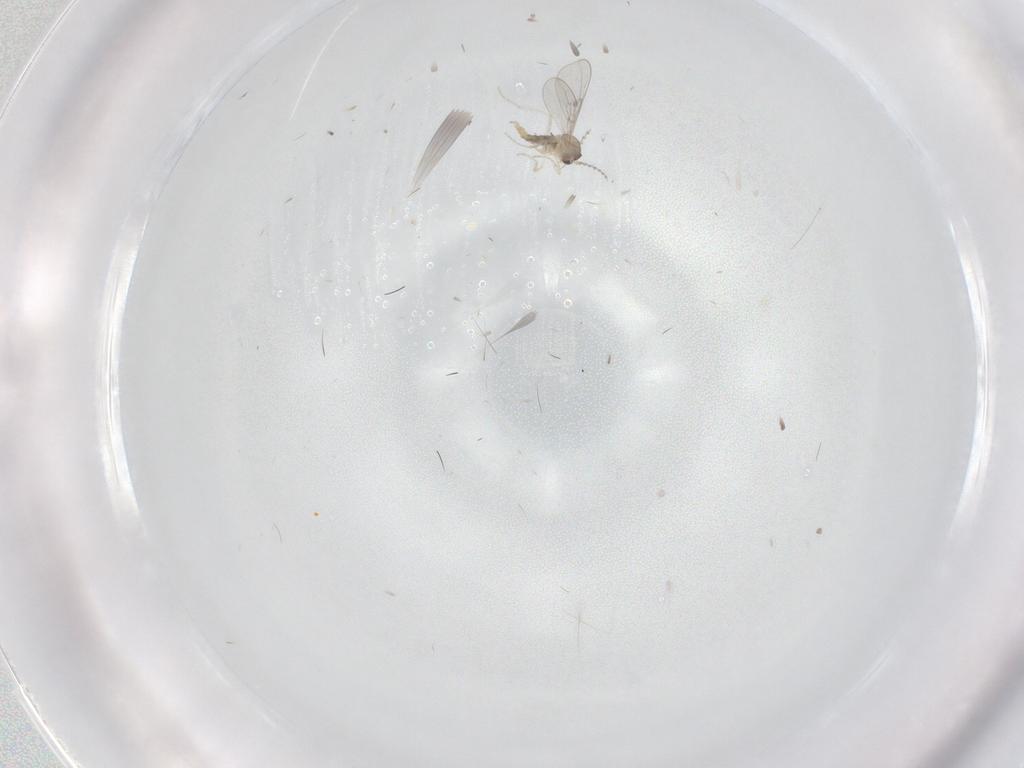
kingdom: Animalia
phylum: Arthropoda
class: Insecta
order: Diptera
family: Cecidomyiidae
